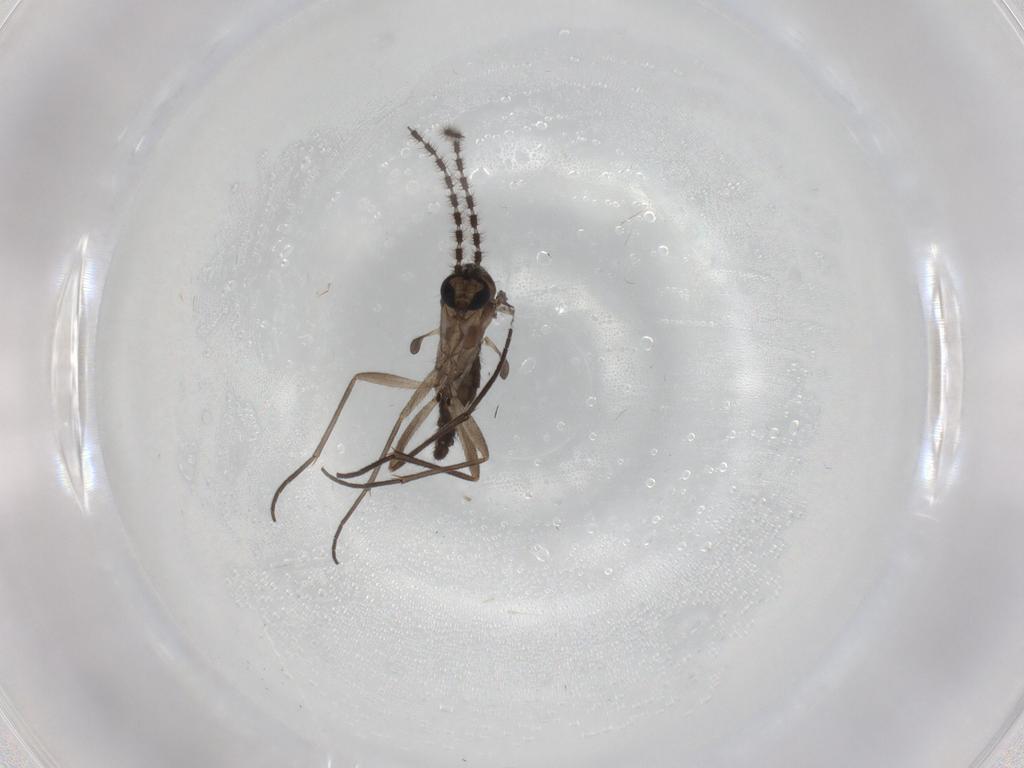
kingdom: Animalia
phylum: Arthropoda
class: Insecta
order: Diptera
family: Sciaridae
